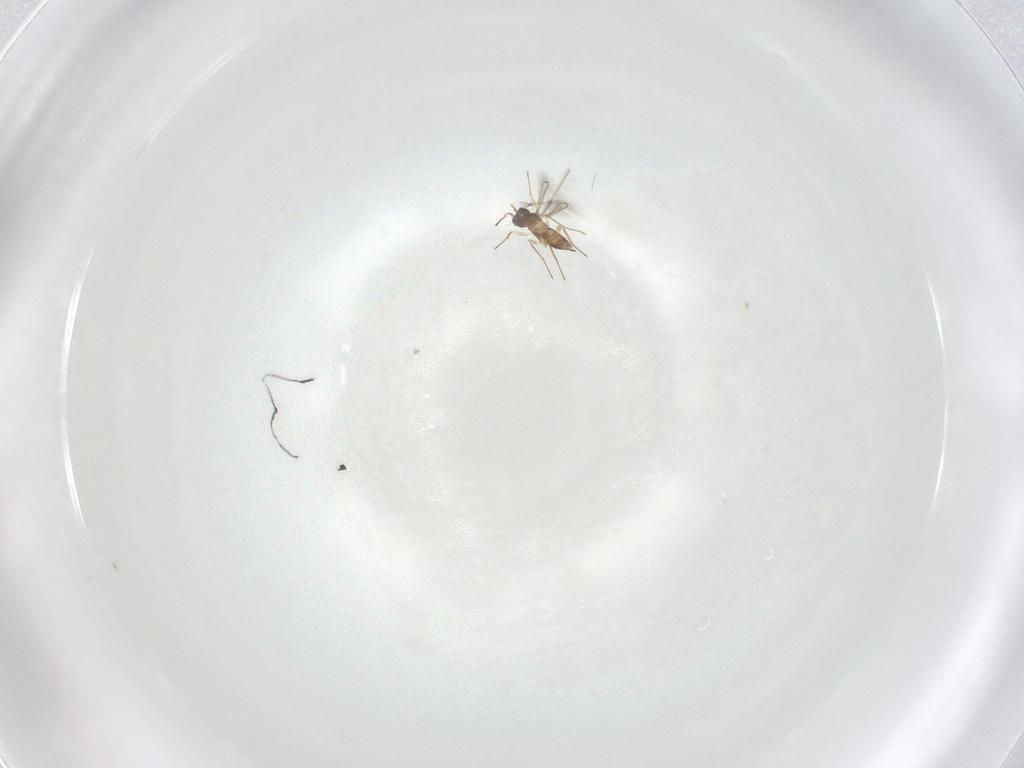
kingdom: Animalia
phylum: Arthropoda
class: Insecta
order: Hymenoptera
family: Mymaridae
